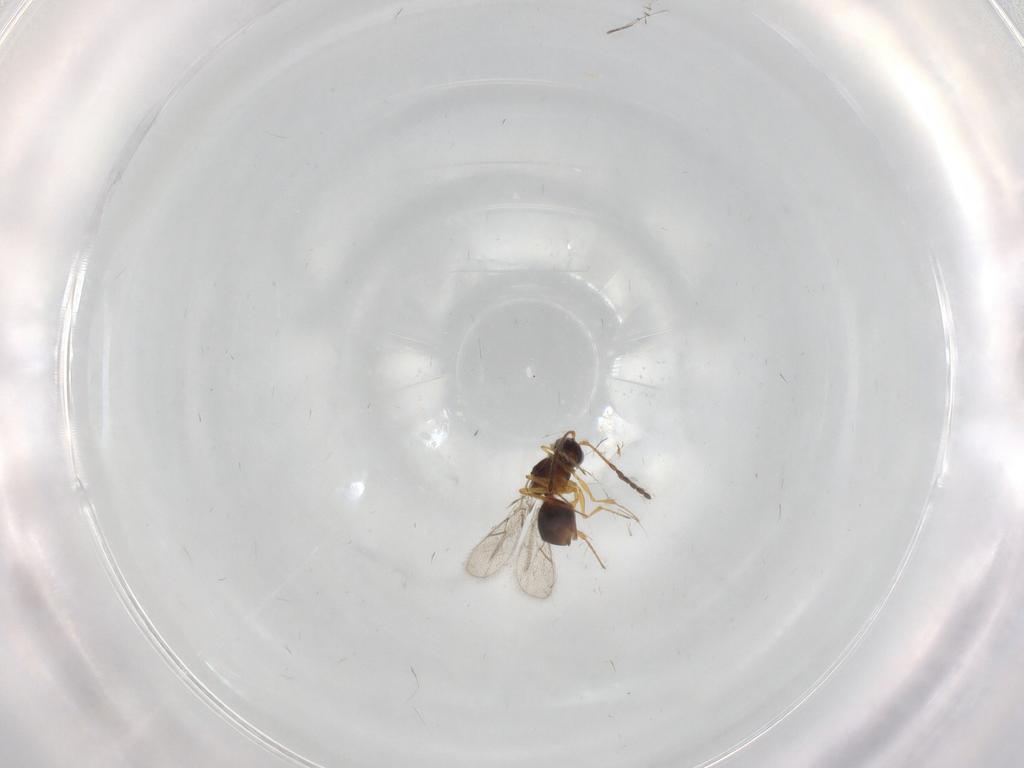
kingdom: Animalia
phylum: Arthropoda
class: Insecta
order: Hymenoptera
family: Figitidae
